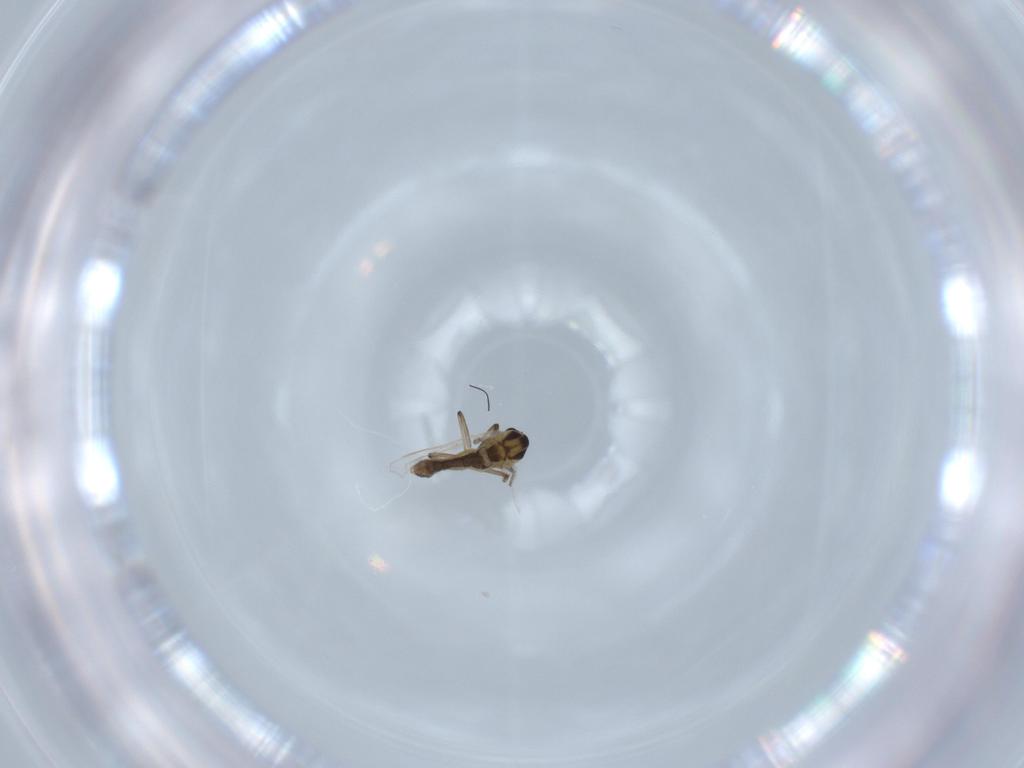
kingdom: Animalia
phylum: Arthropoda
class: Insecta
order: Diptera
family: Chironomidae
